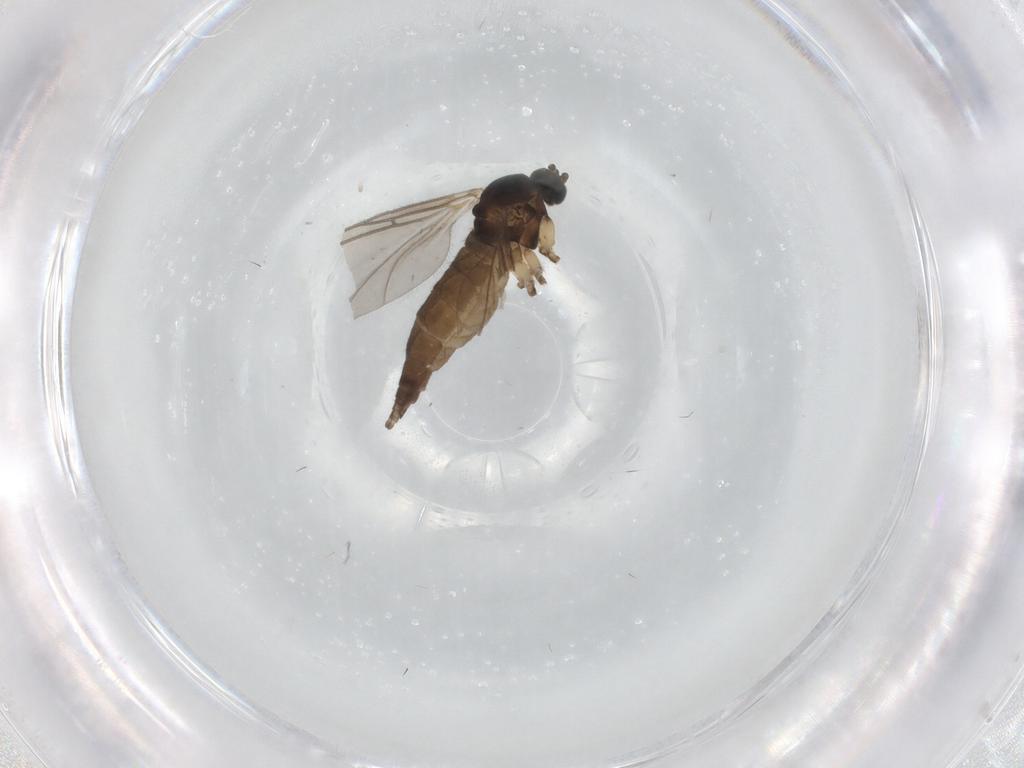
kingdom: Animalia
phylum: Arthropoda
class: Insecta
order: Diptera
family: Sciaridae
